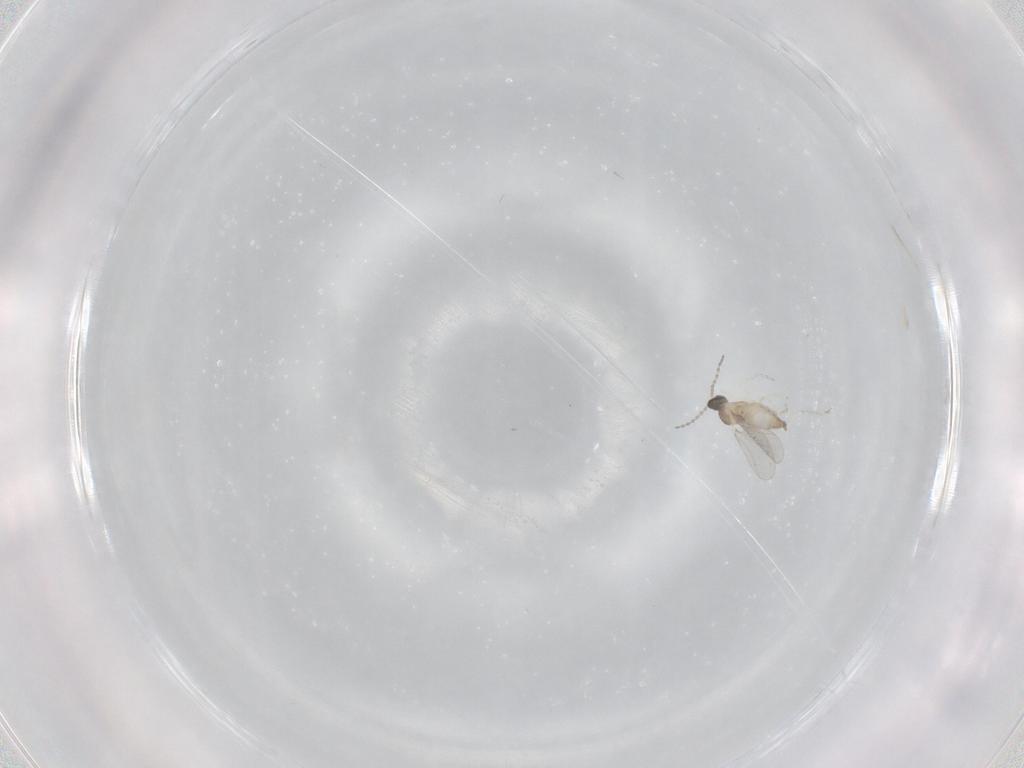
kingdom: Animalia
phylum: Arthropoda
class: Insecta
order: Diptera
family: Cecidomyiidae
